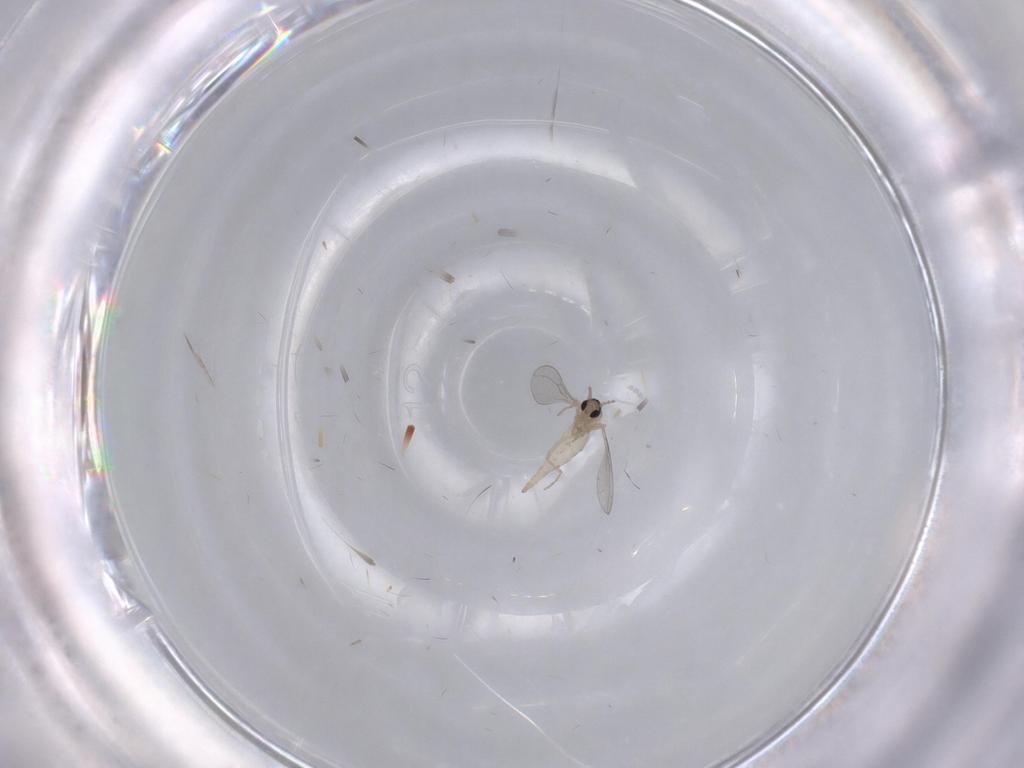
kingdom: Animalia
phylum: Arthropoda
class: Insecta
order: Diptera
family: Cecidomyiidae
